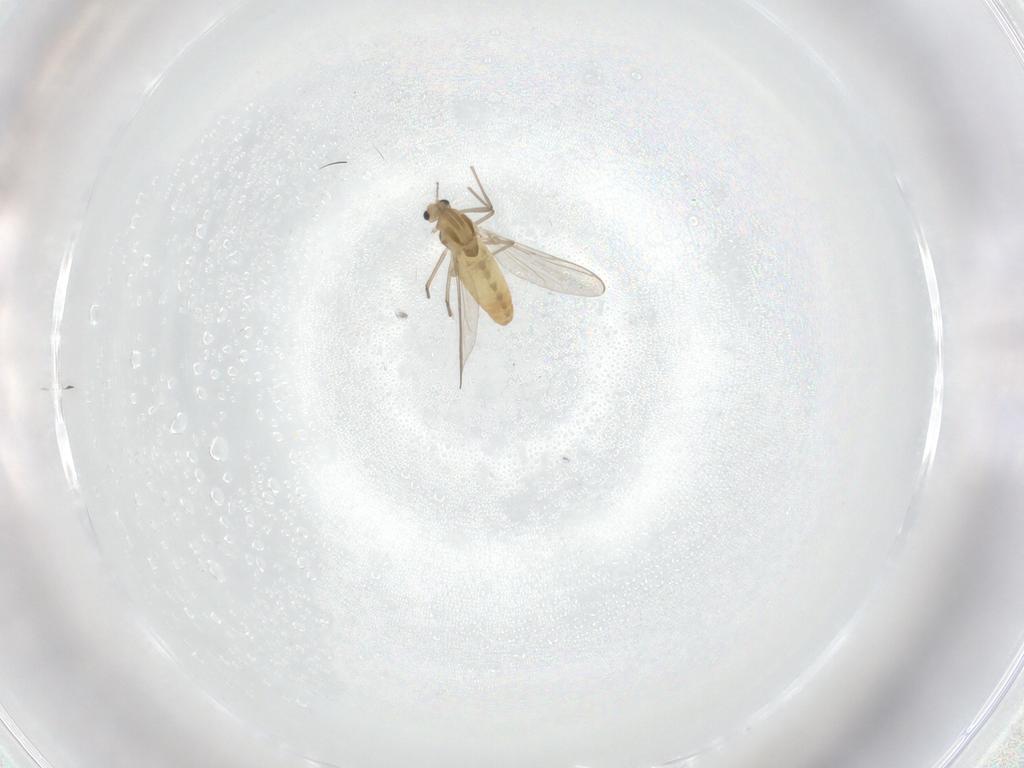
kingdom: Animalia
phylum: Arthropoda
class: Insecta
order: Diptera
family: Chironomidae
